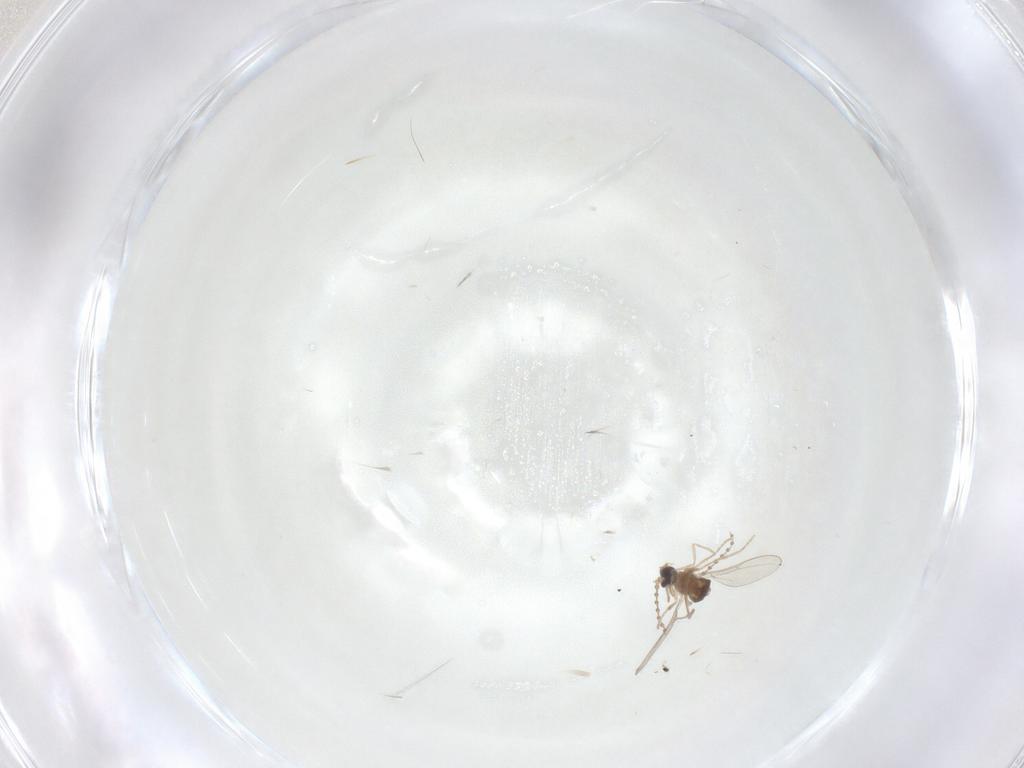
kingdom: Animalia
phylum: Arthropoda
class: Insecta
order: Diptera
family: Cecidomyiidae
